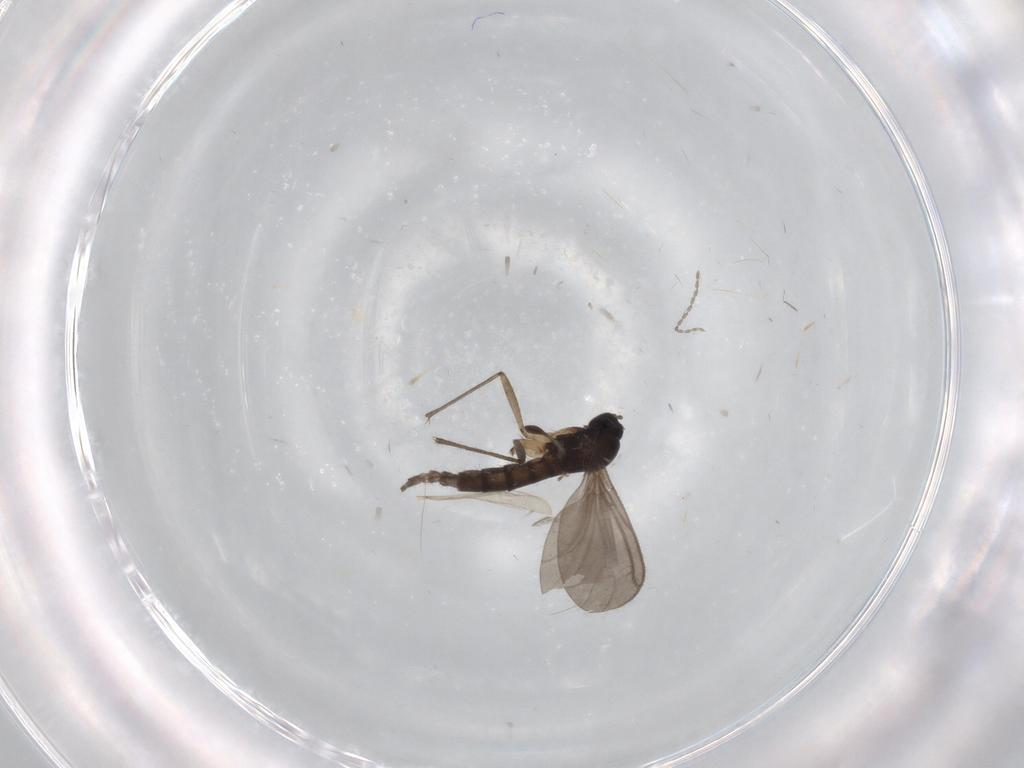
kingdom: Animalia
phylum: Arthropoda
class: Insecta
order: Diptera
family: Sciaridae
